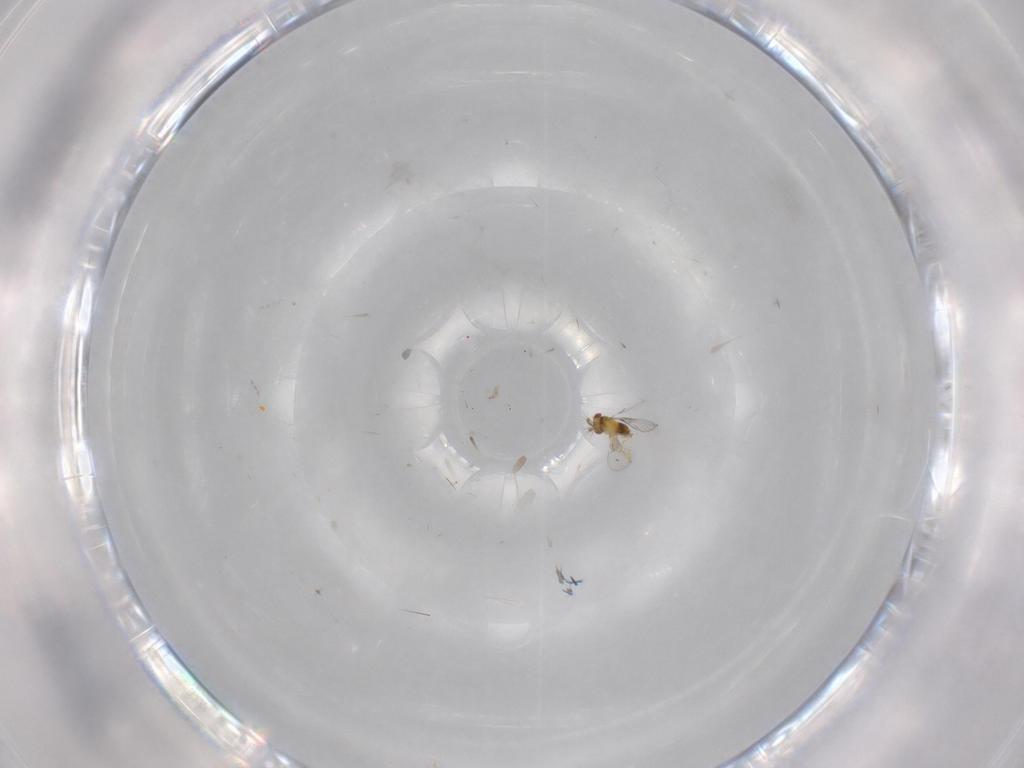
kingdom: Animalia
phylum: Arthropoda
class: Insecta
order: Hymenoptera
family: Trichogrammatidae
